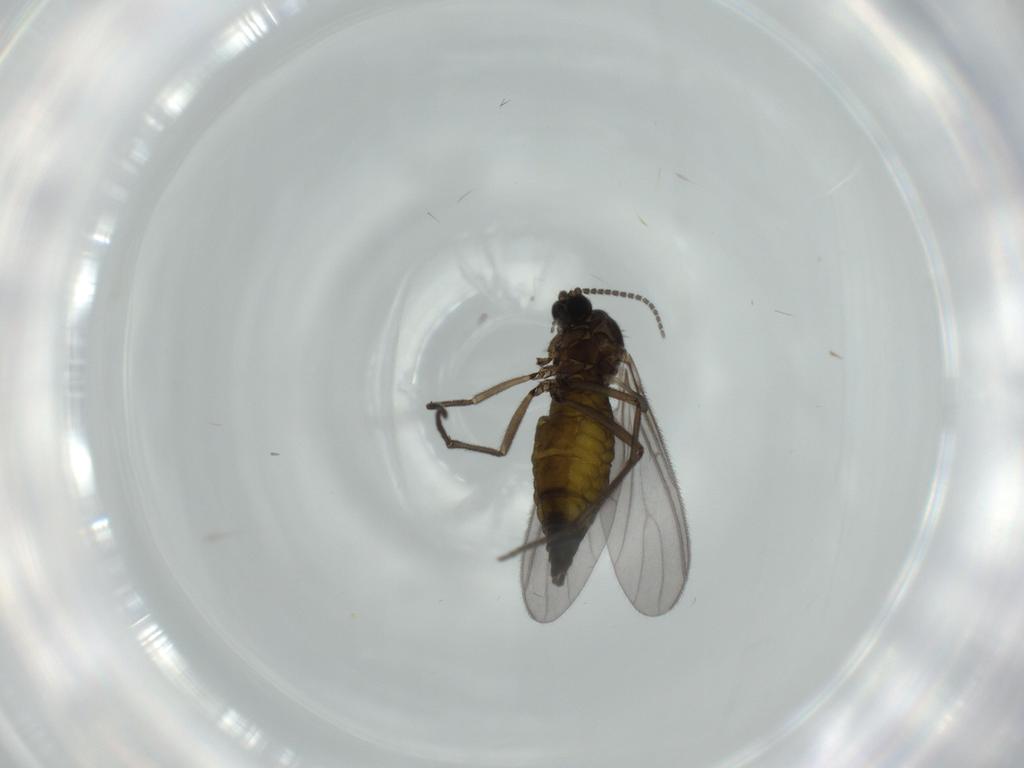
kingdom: Animalia
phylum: Arthropoda
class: Insecta
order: Diptera
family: Sciaridae
